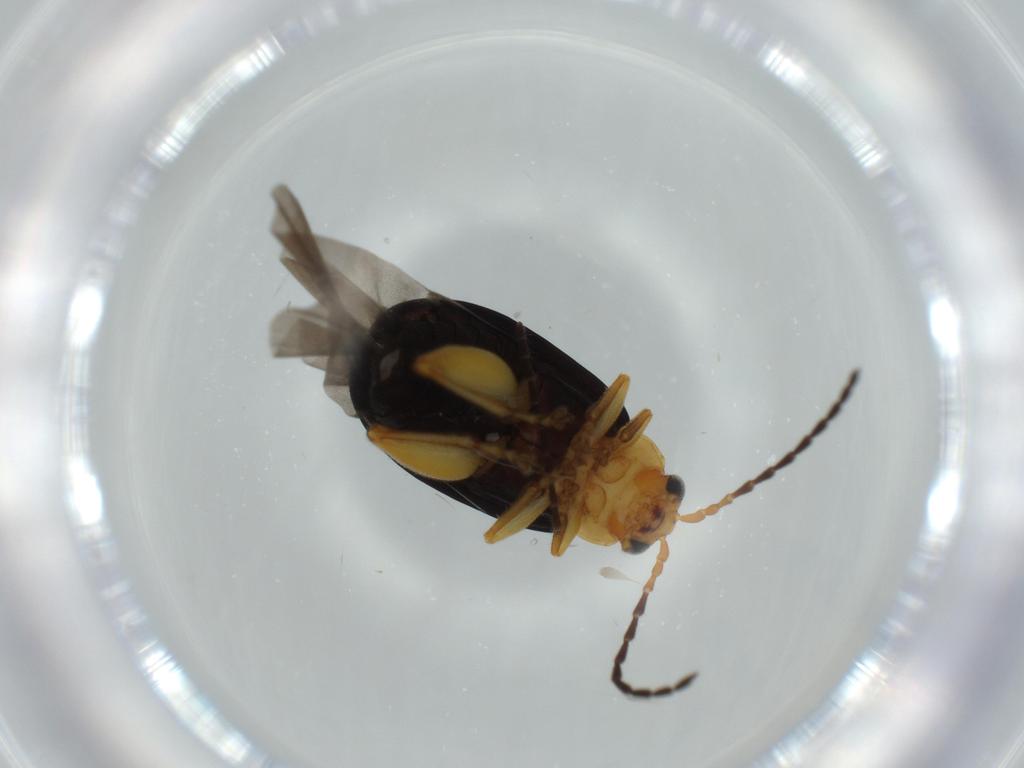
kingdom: Animalia
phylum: Arthropoda
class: Insecta
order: Coleoptera
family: Chrysomelidae
